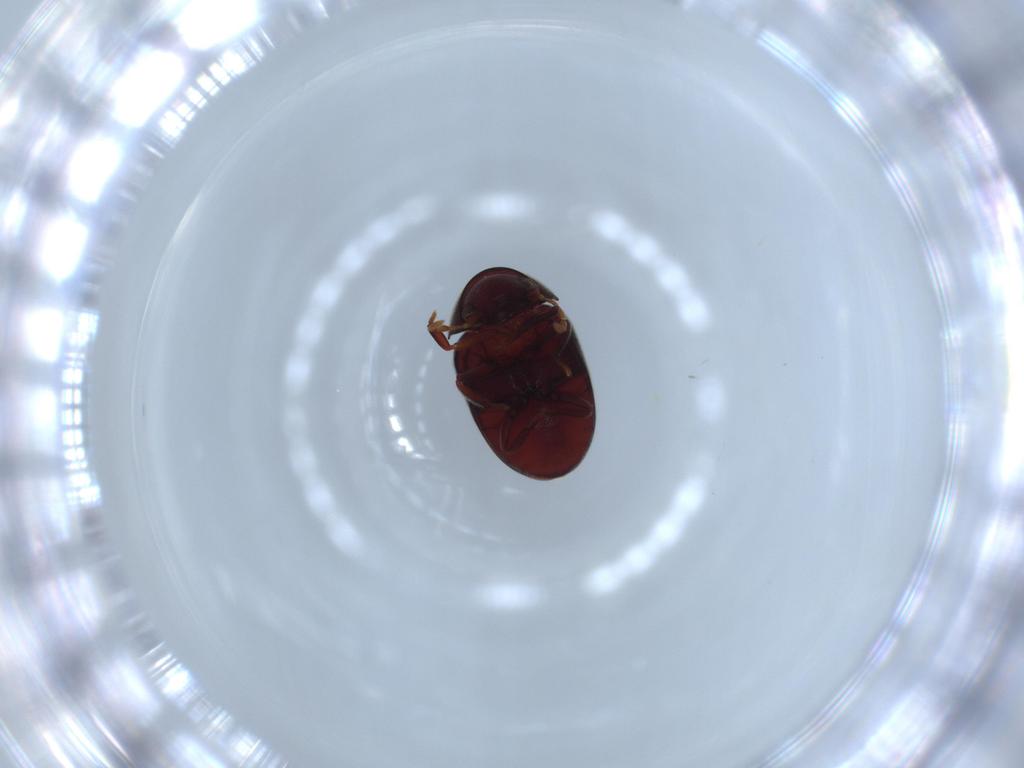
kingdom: Animalia
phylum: Arthropoda
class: Insecta
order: Coleoptera
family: Ptinidae
